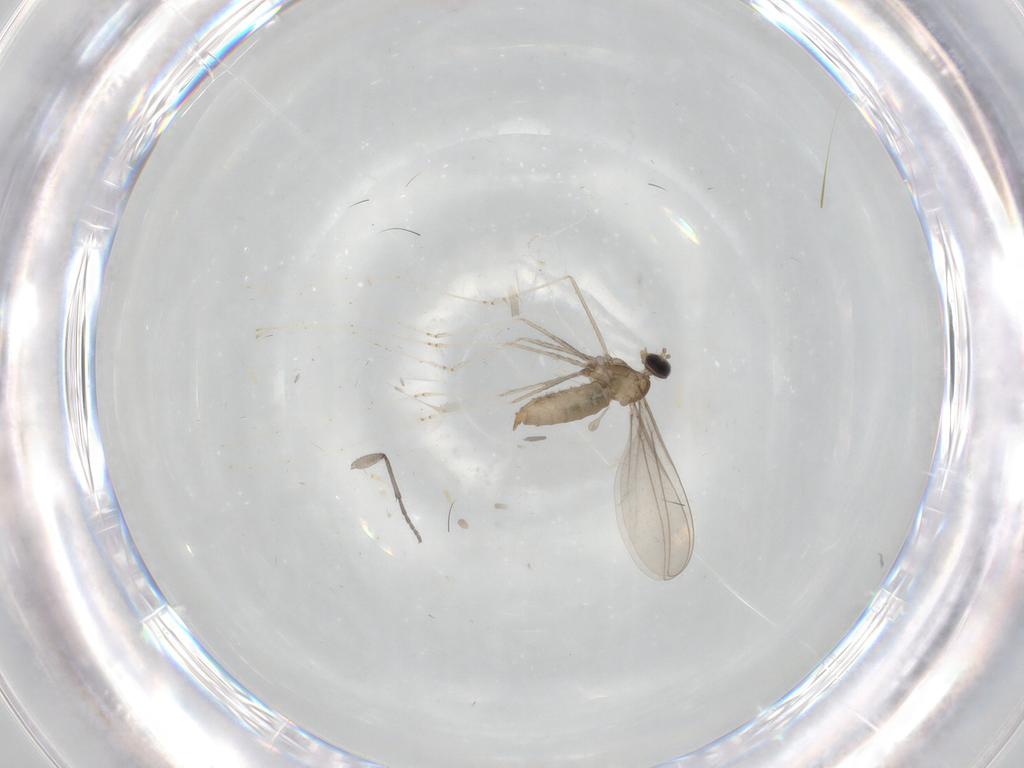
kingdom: Animalia
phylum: Arthropoda
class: Insecta
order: Diptera
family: Sciaridae
